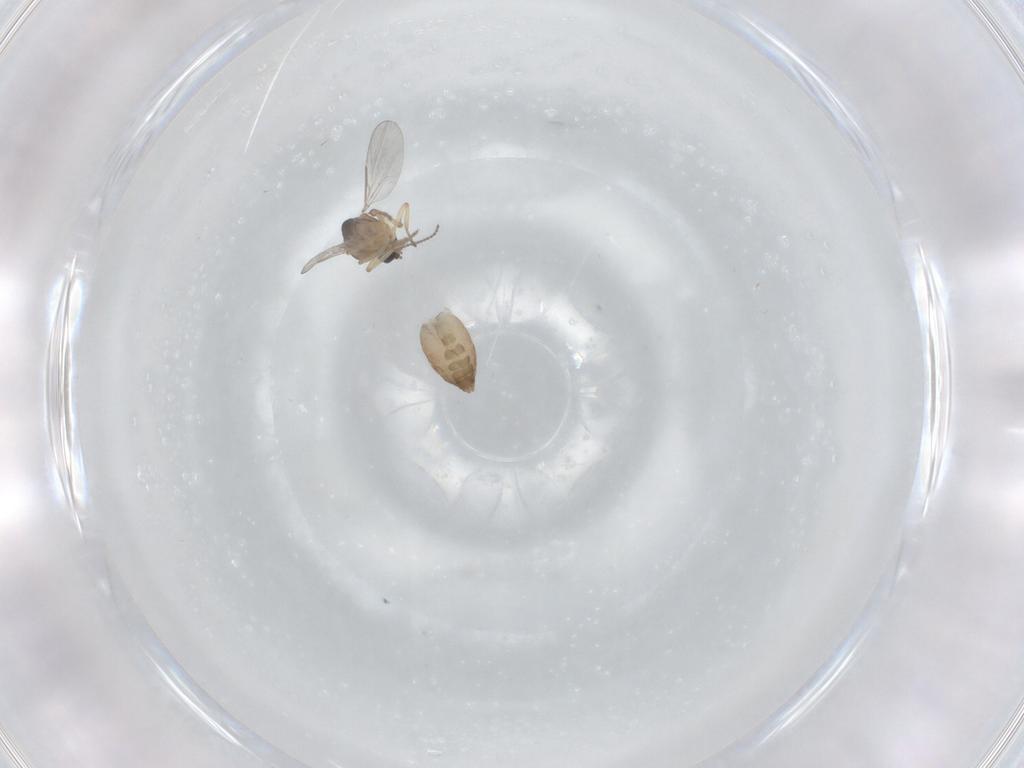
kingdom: Animalia
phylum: Arthropoda
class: Insecta
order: Diptera
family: Ceratopogonidae
